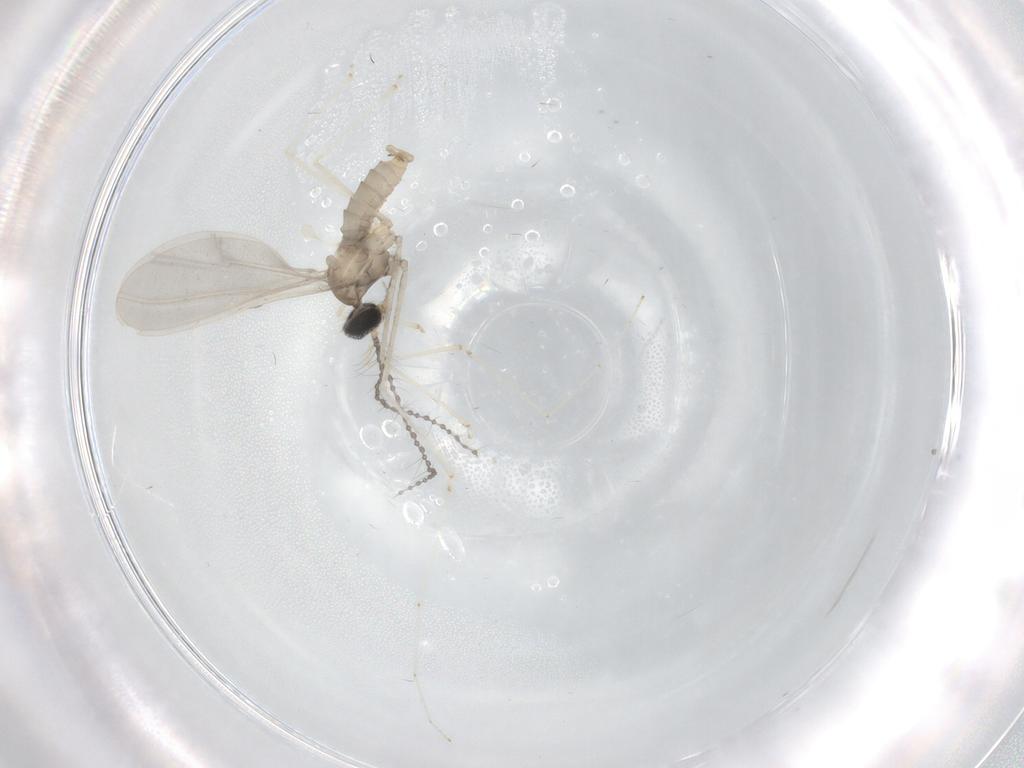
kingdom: Animalia
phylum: Arthropoda
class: Insecta
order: Diptera
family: Cecidomyiidae
